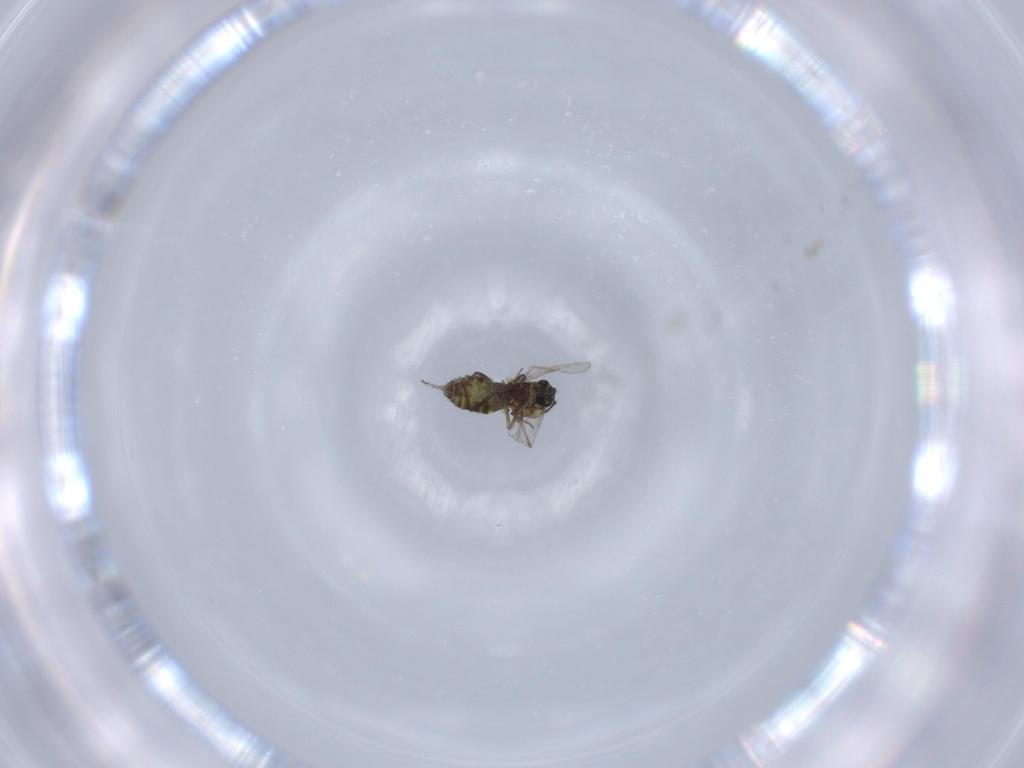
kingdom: Animalia
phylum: Arthropoda
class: Insecta
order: Diptera
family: Ceratopogonidae
